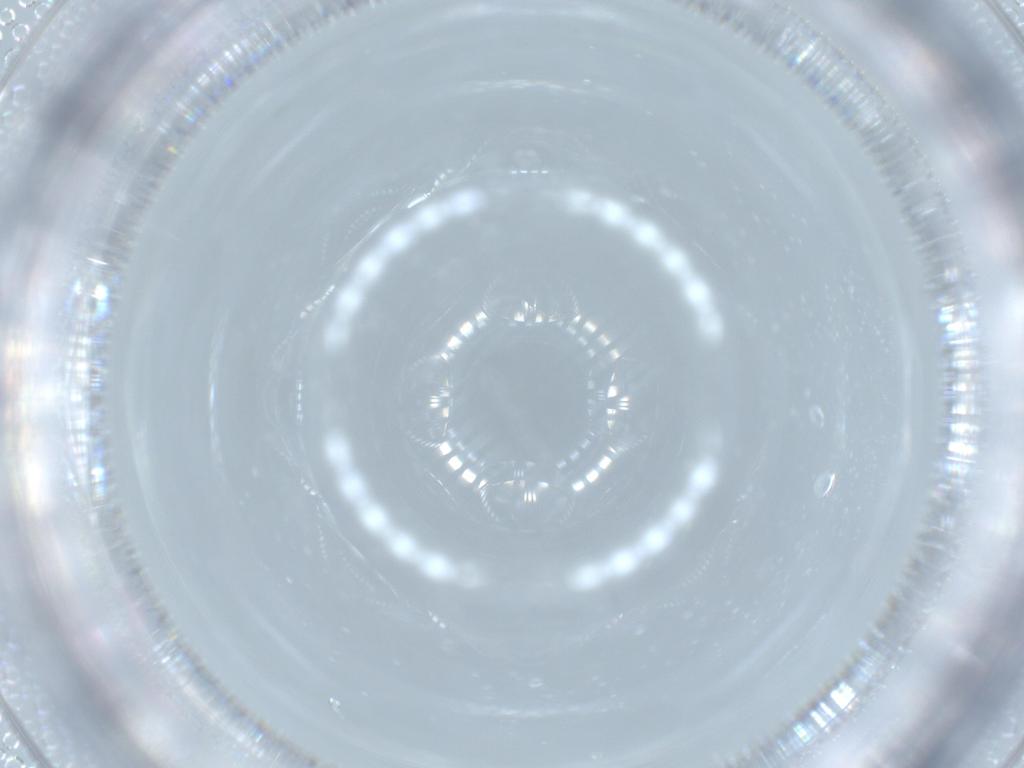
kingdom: Animalia
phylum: Arthropoda
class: Insecta
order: Diptera
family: Cecidomyiidae
